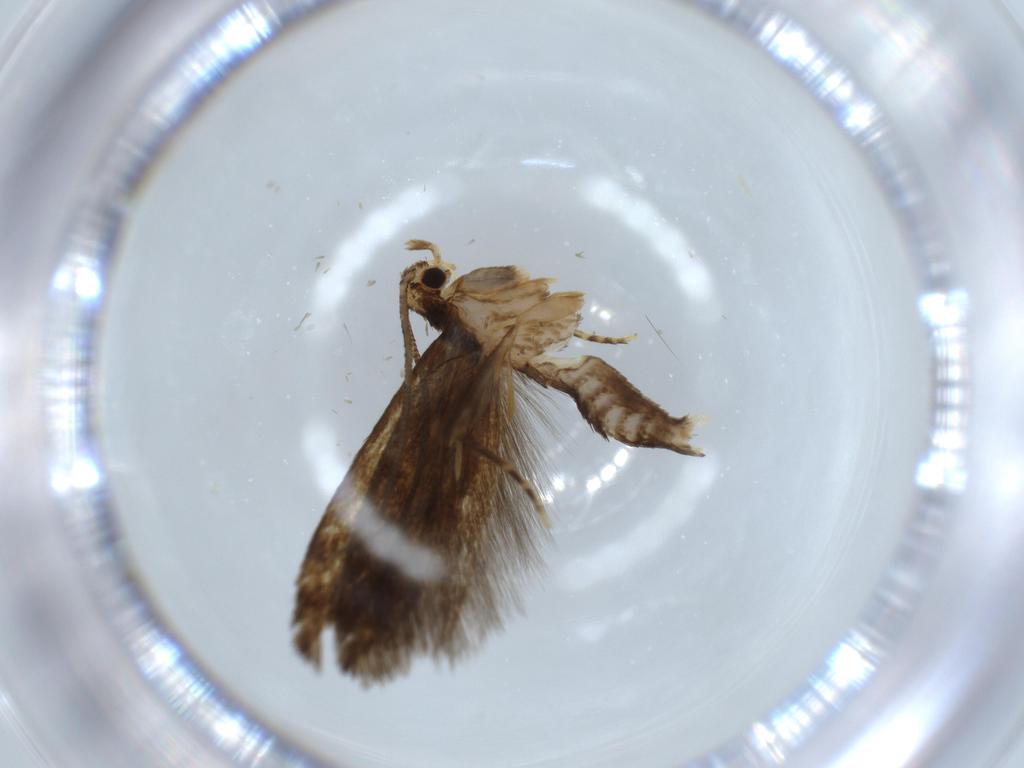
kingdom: Animalia
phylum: Arthropoda
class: Insecta
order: Lepidoptera
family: Tineidae
